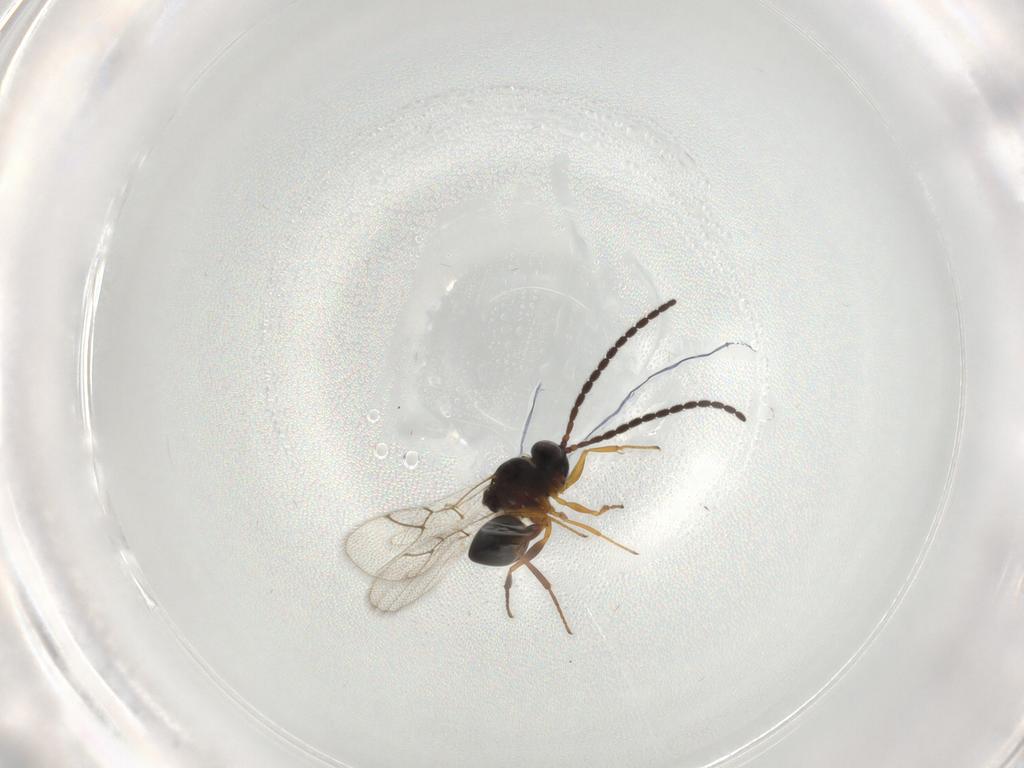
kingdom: Animalia
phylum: Arthropoda
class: Insecta
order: Hymenoptera
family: Figitidae
